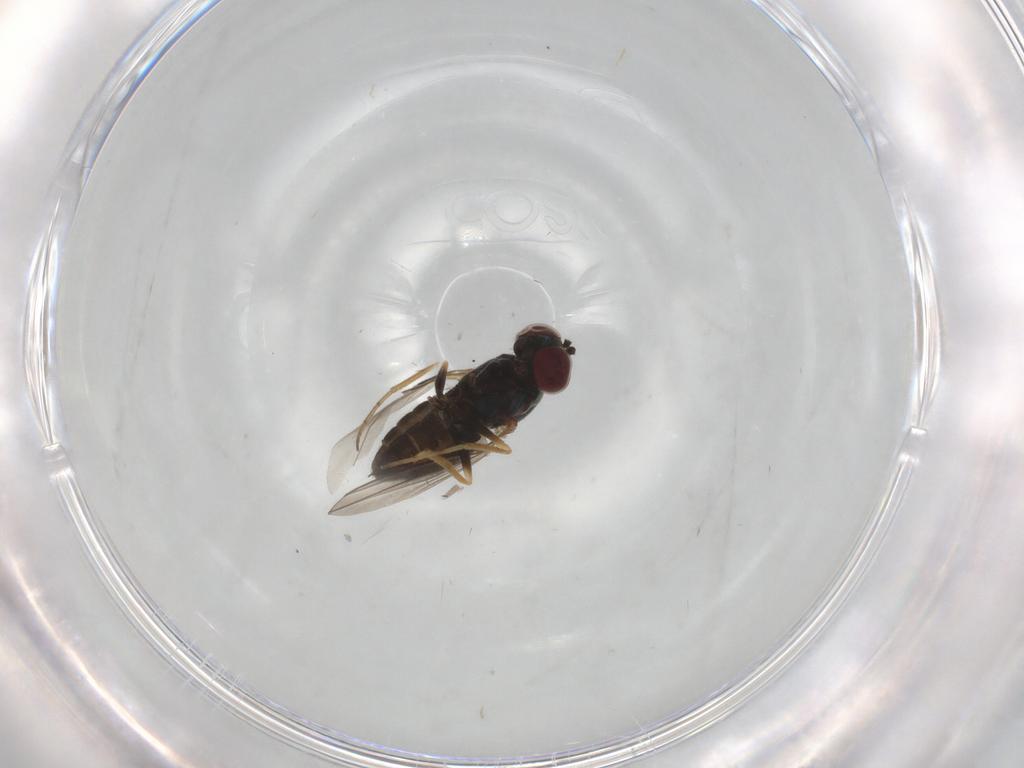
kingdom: Animalia
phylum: Arthropoda
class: Insecta
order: Diptera
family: Dolichopodidae
